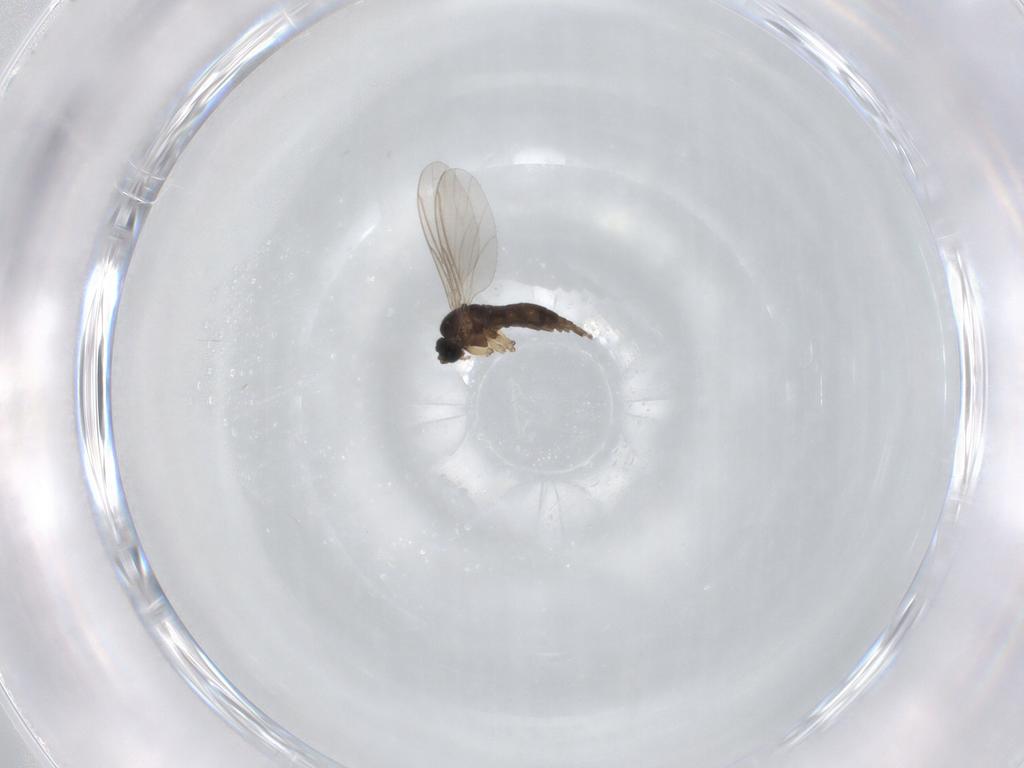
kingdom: Animalia
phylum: Arthropoda
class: Insecta
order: Diptera
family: Sciaridae
